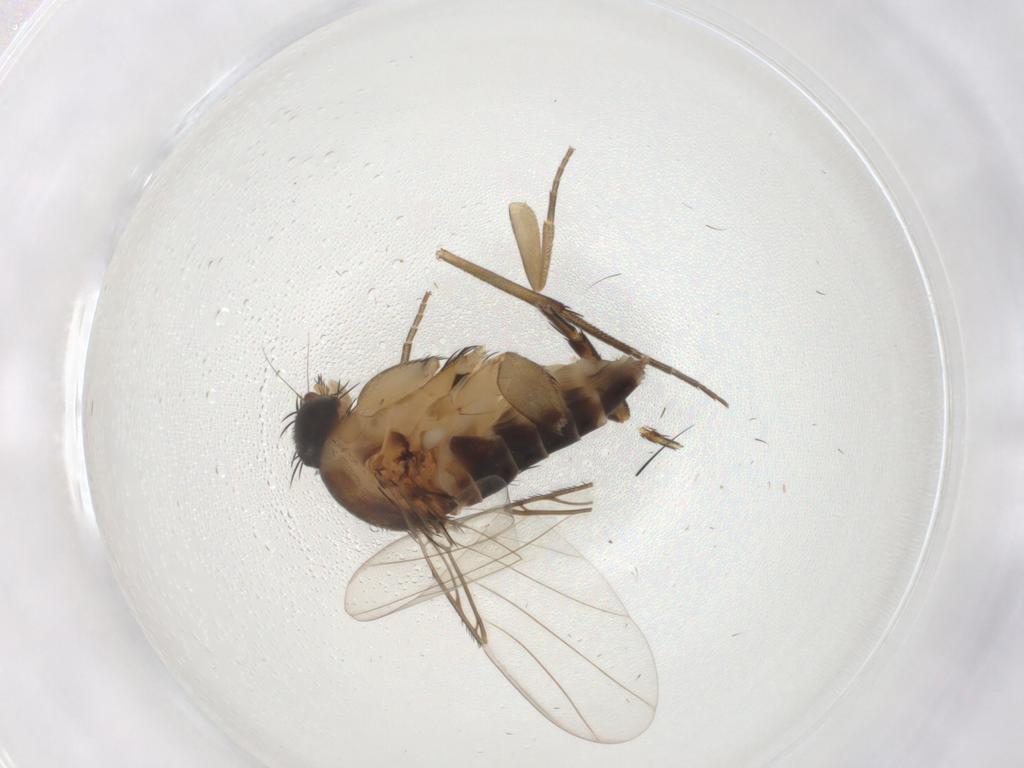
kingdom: Animalia
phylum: Arthropoda
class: Insecta
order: Diptera
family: Phoridae
